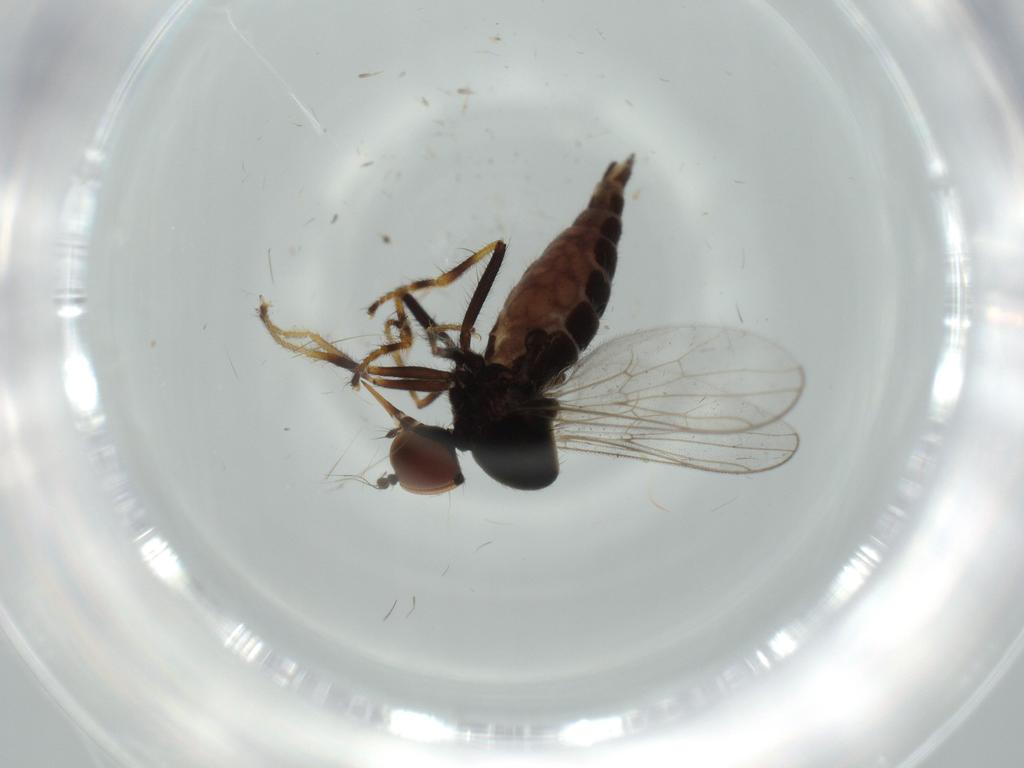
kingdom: Animalia
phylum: Arthropoda
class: Insecta
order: Diptera
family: Hybotidae
